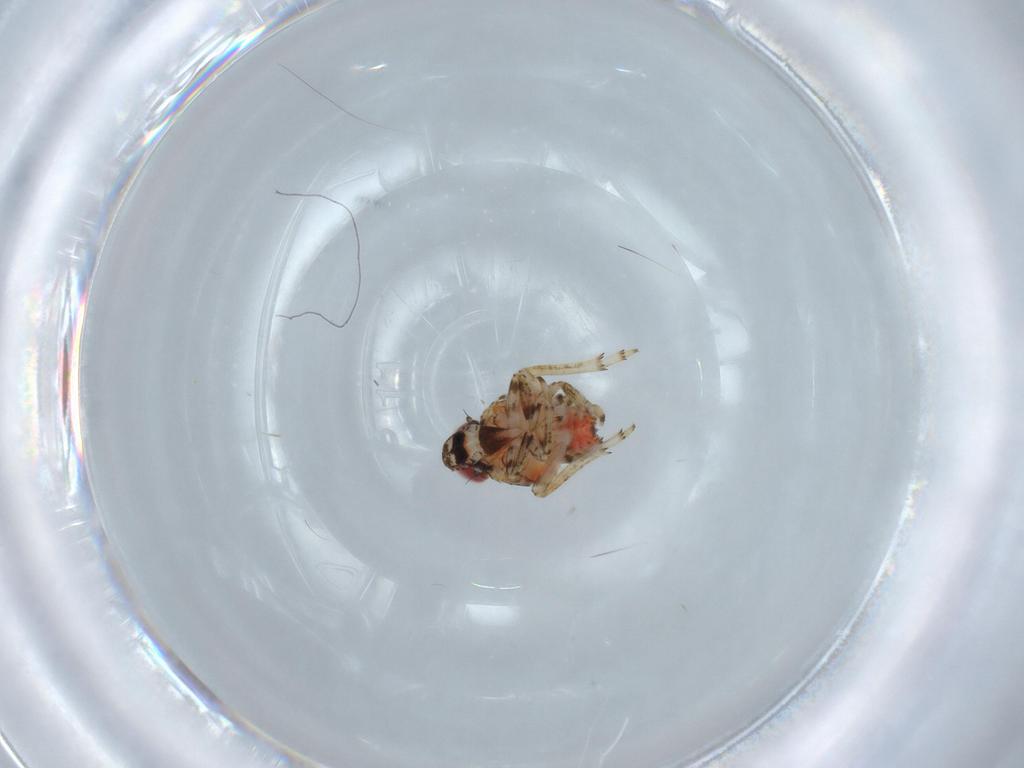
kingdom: Animalia
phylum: Arthropoda
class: Insecta
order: Hemiptera
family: Issidae
